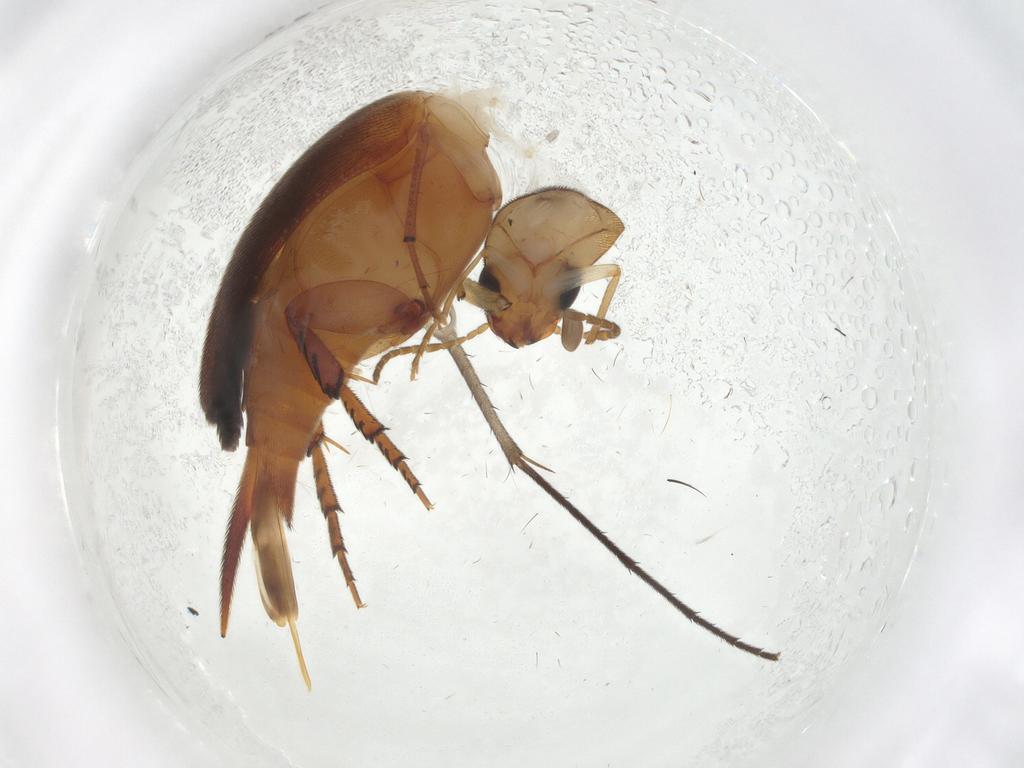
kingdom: Animalia
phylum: Arthropoda
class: Insecta
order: Coleoptera
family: Mordellidae
